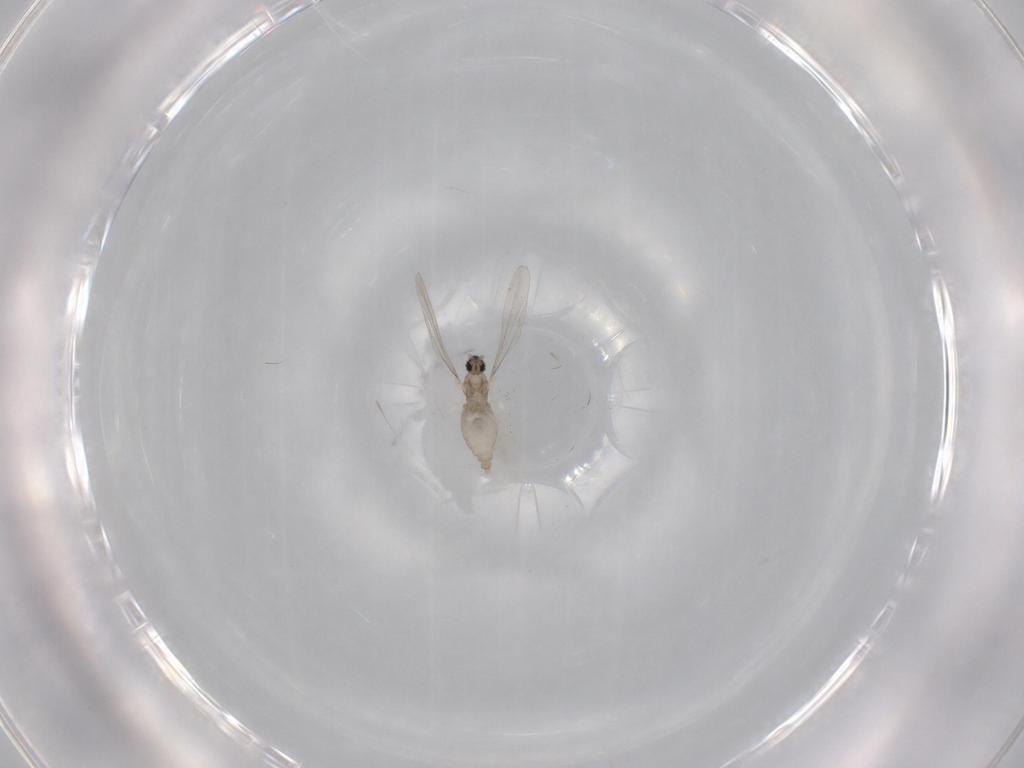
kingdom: Animalia
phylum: Arthropoda
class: Insecta
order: Diptera
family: Cecidomyiidae
